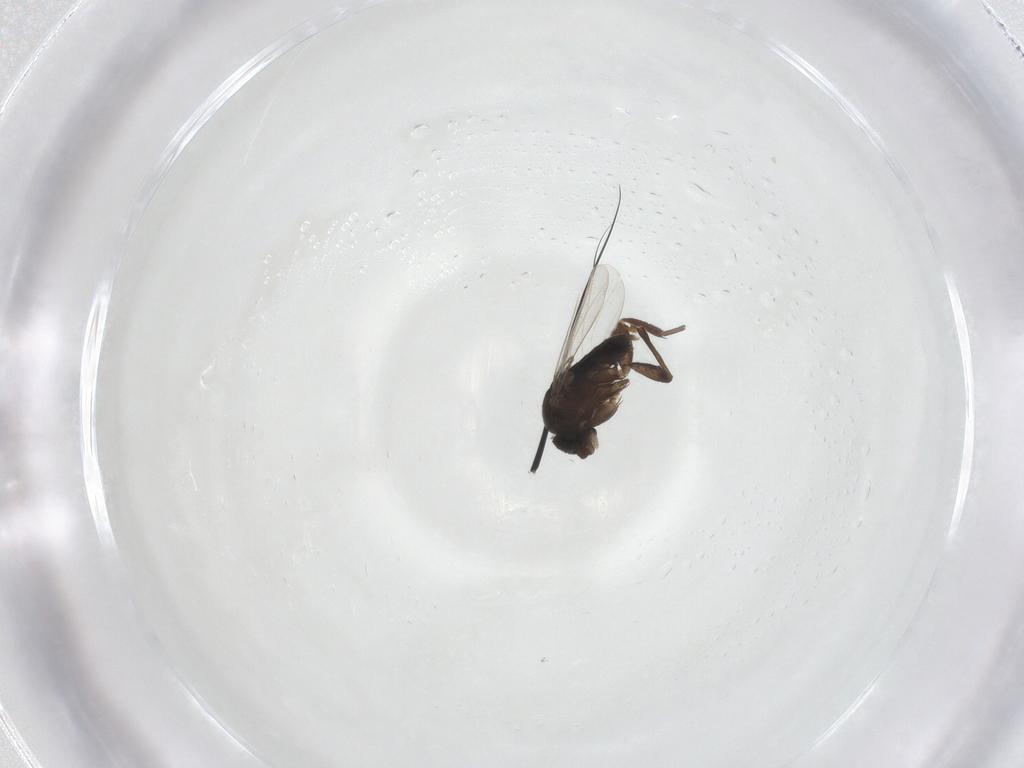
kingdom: Animalia
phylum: Arthropoda
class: Insecta
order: Diptera
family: Phoridae
